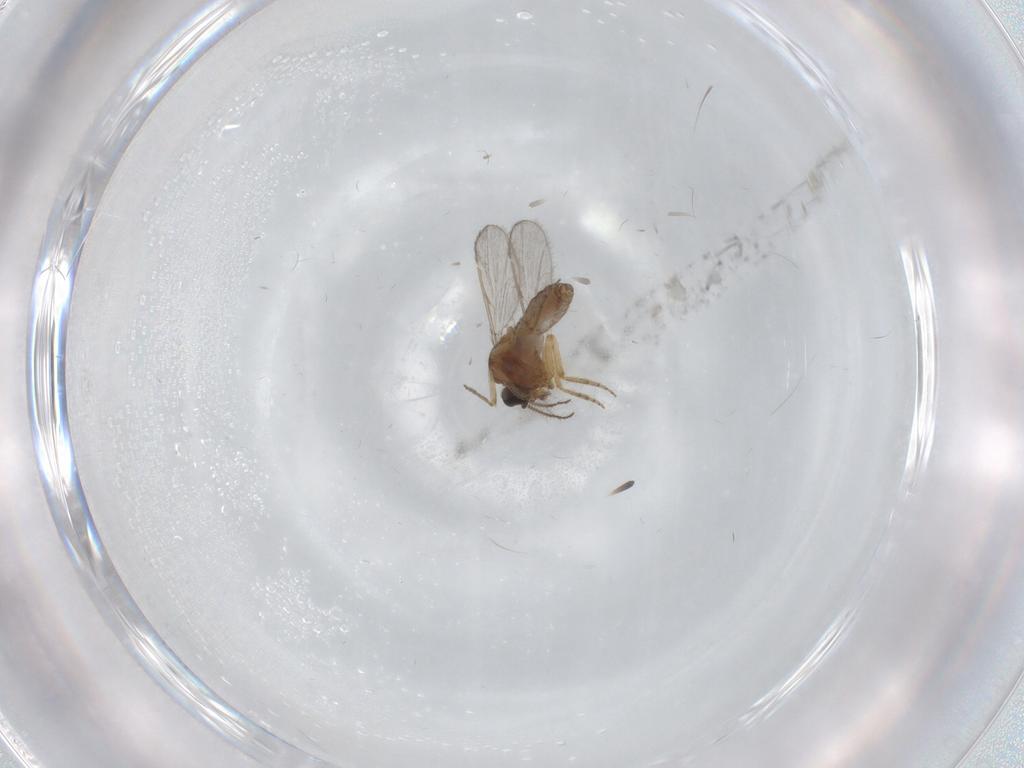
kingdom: Animalia
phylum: Arthropoda
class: Insecta
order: Diptera
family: Ceratopogonidae
